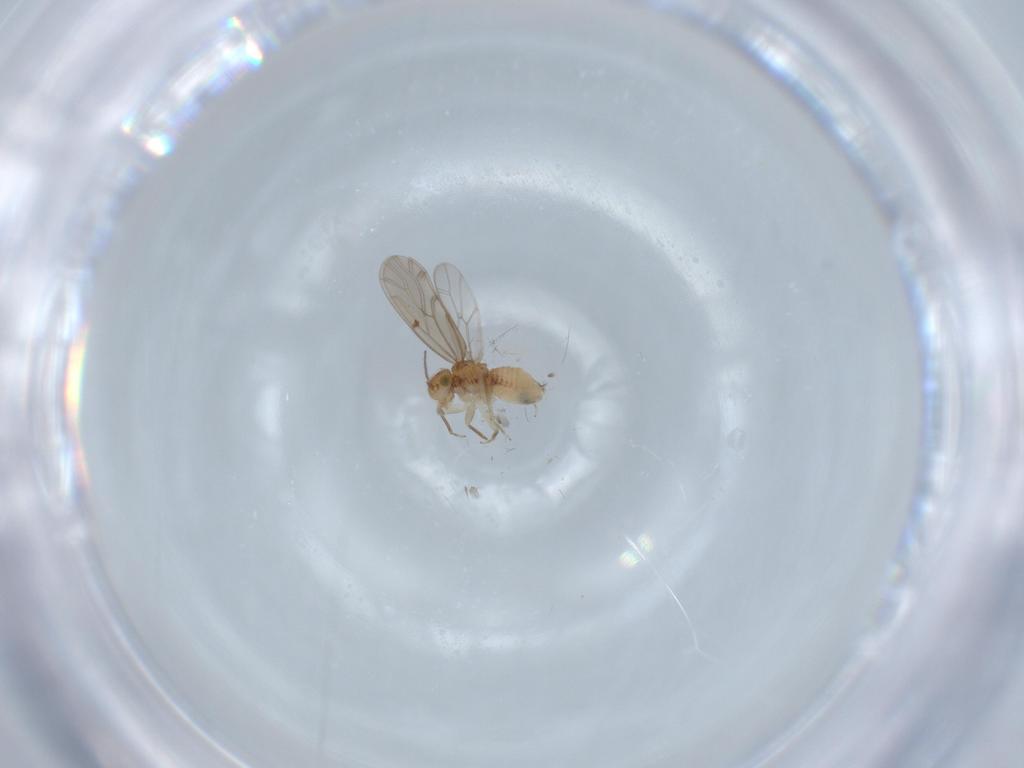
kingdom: Animalia
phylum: Arthropoda
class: Insecta
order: Psocodea
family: Ectopsocidae
